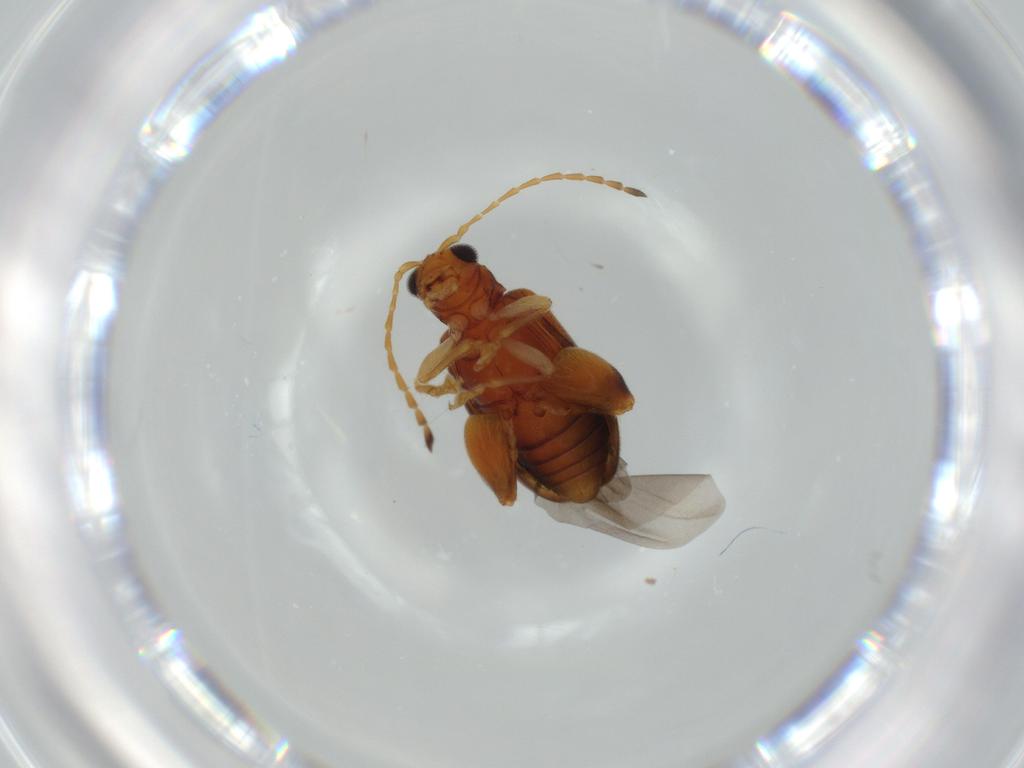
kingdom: Animalia
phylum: Arthropoda
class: Insecta
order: Coleoptera
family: Chrysomelidae
